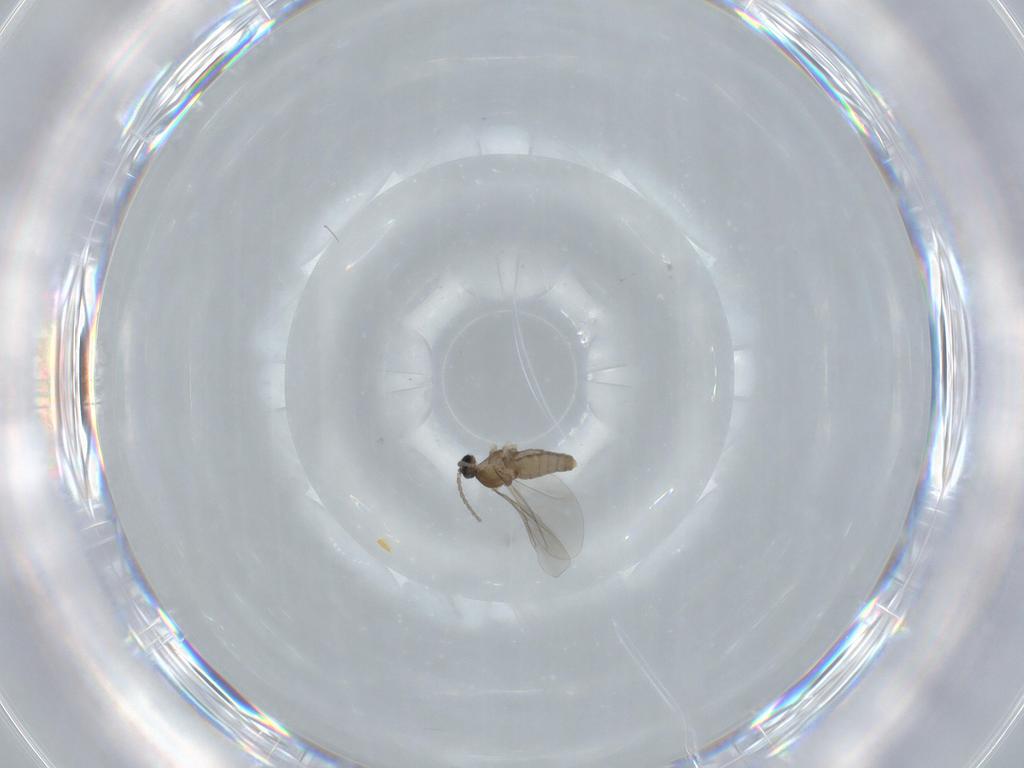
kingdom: Animalia
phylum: Arthropoda
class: Insecta
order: Diptera
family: Cecidomyiidae
